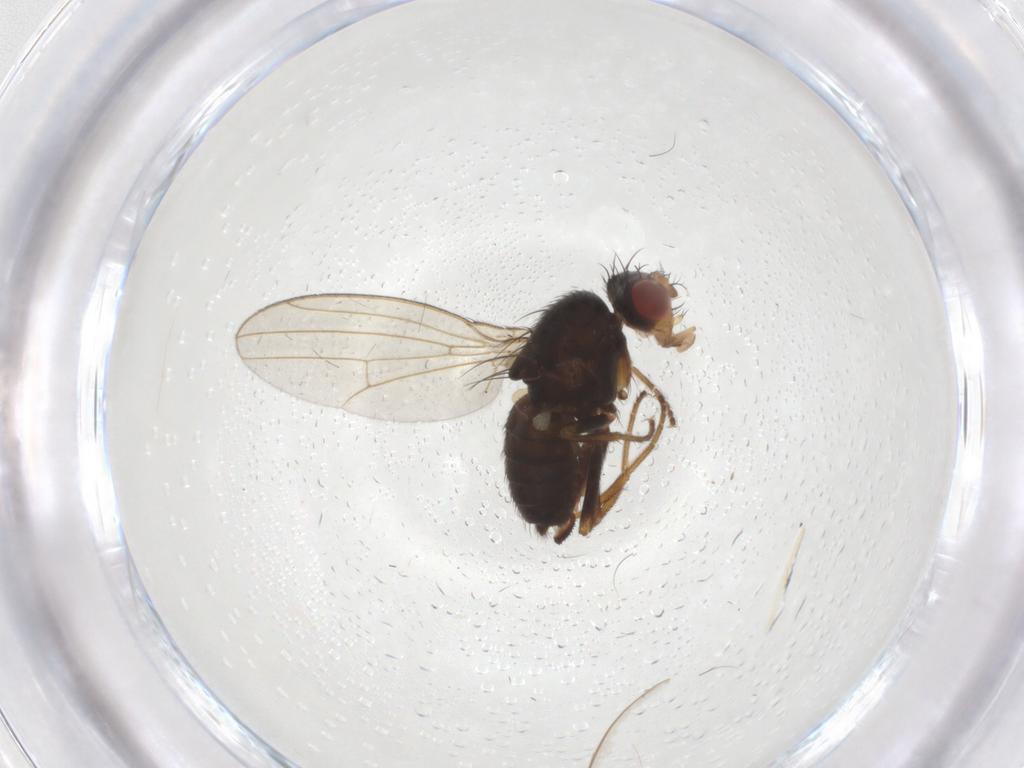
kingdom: Animalia
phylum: Arthropoda
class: Insecta
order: Diptera
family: Drosophilidae
